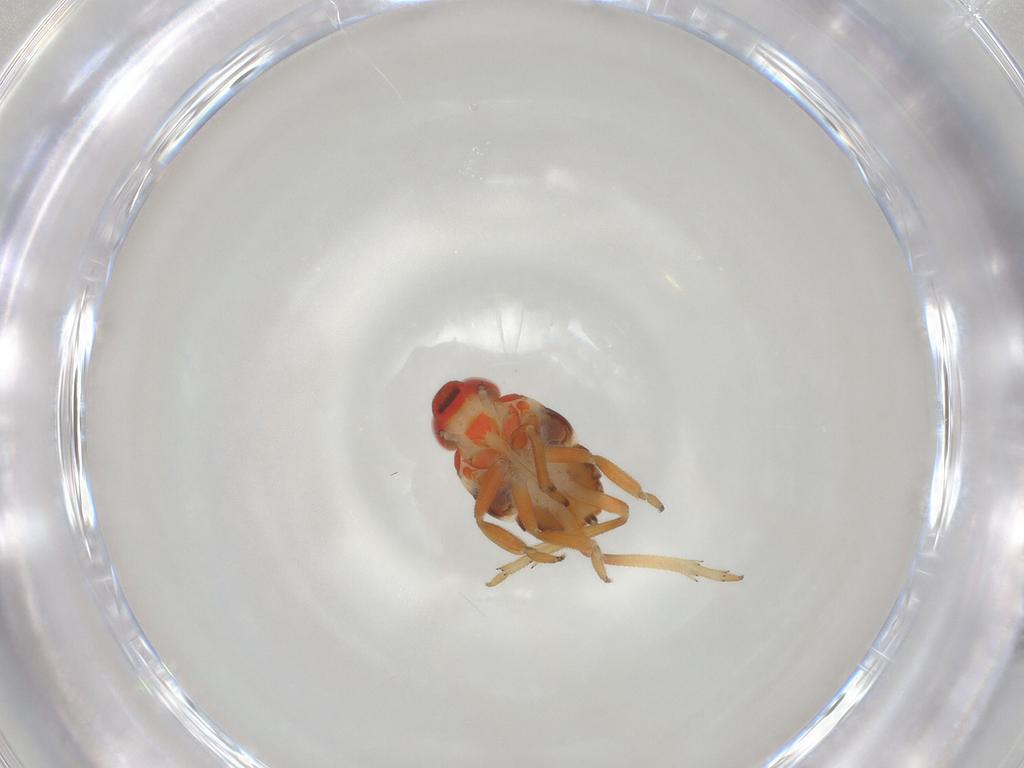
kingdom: Animalia
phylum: Arthropoda
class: Insecta
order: Hemiptera
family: Issidae
